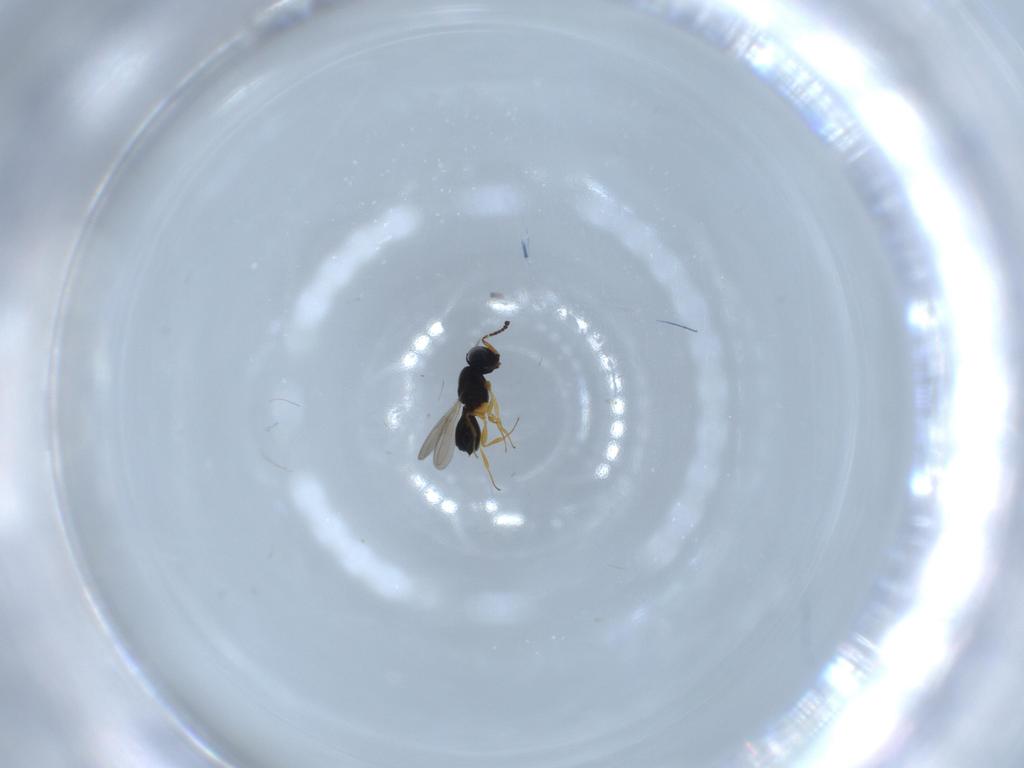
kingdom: Animalia
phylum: Arthropoda
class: Insecta
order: Hymenoptera
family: Scelionidae
